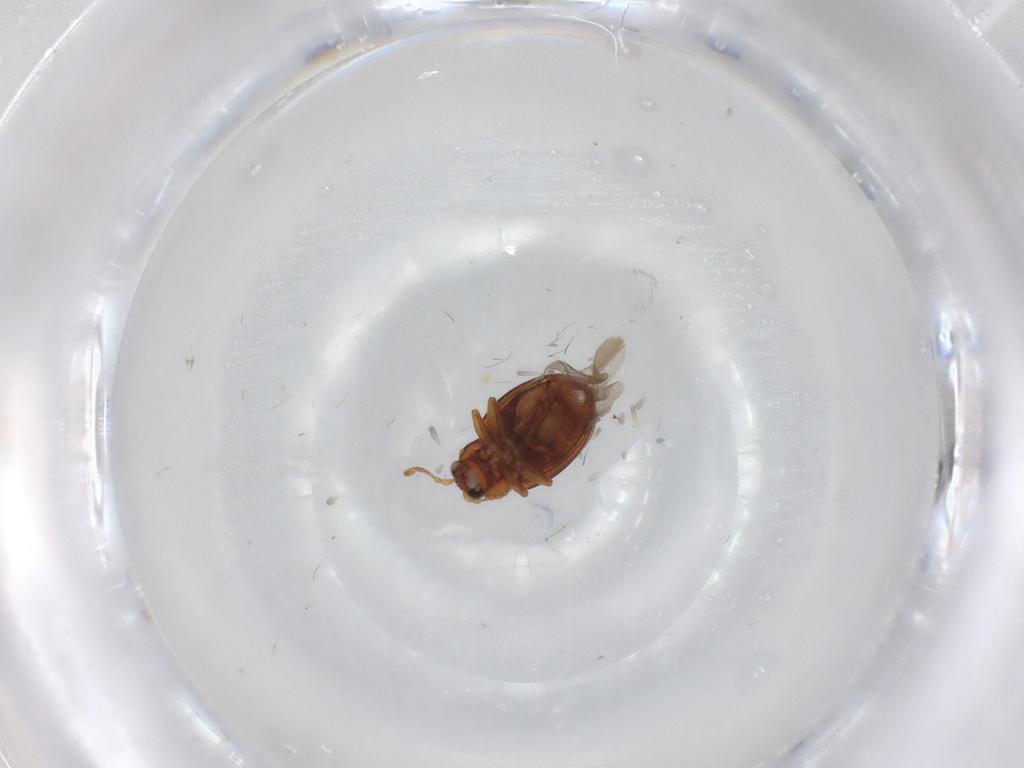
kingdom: Animalia
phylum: Arthropoda
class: Insecta
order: Coleoptera
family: Chrysomelidae
